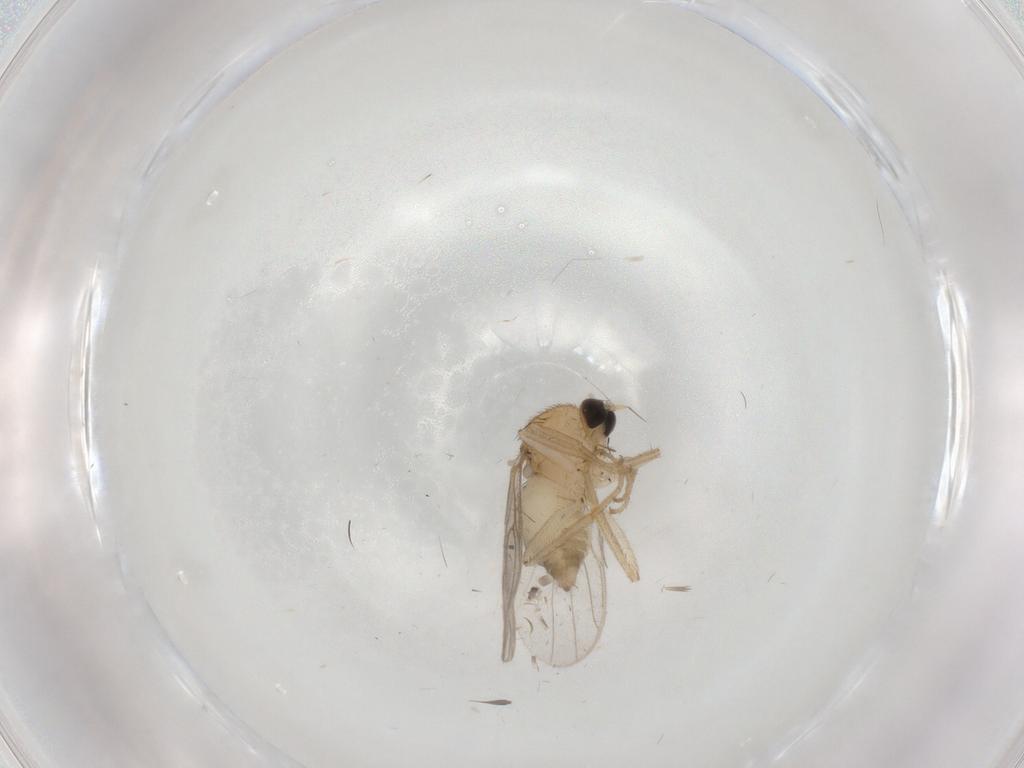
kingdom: Animalia
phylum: Arthropoda
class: Insecta
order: Diptera
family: Hybotidae
